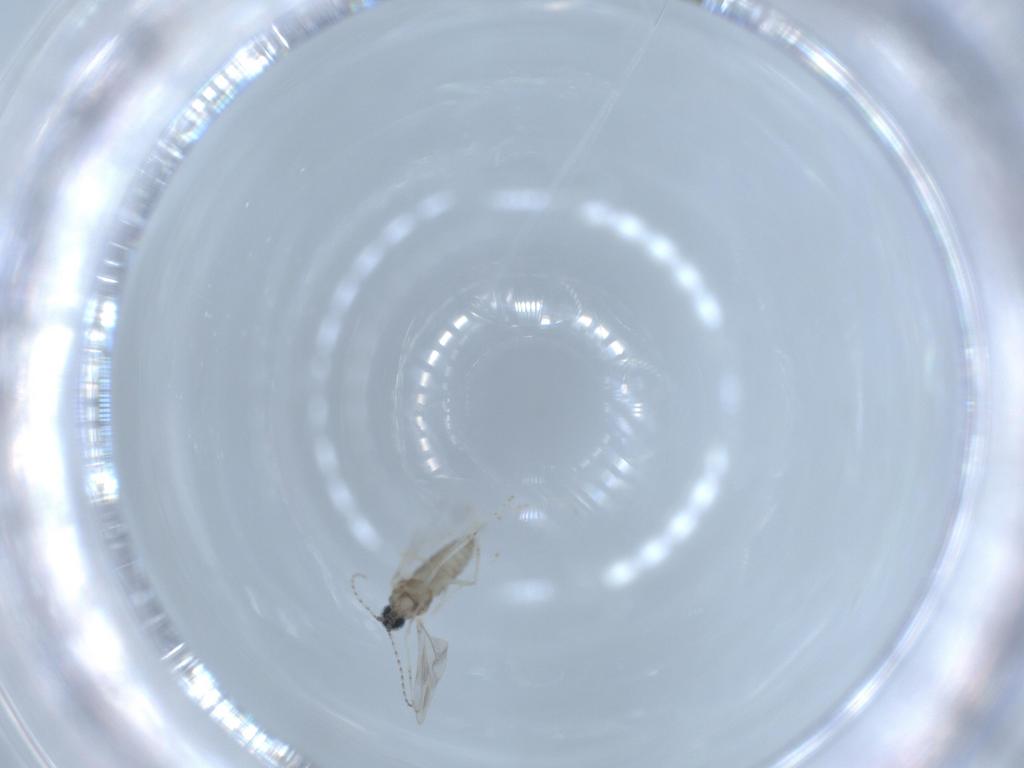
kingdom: Animalia
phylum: Arthropoda
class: Insecta
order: Diptera
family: Cecidomyiidae
